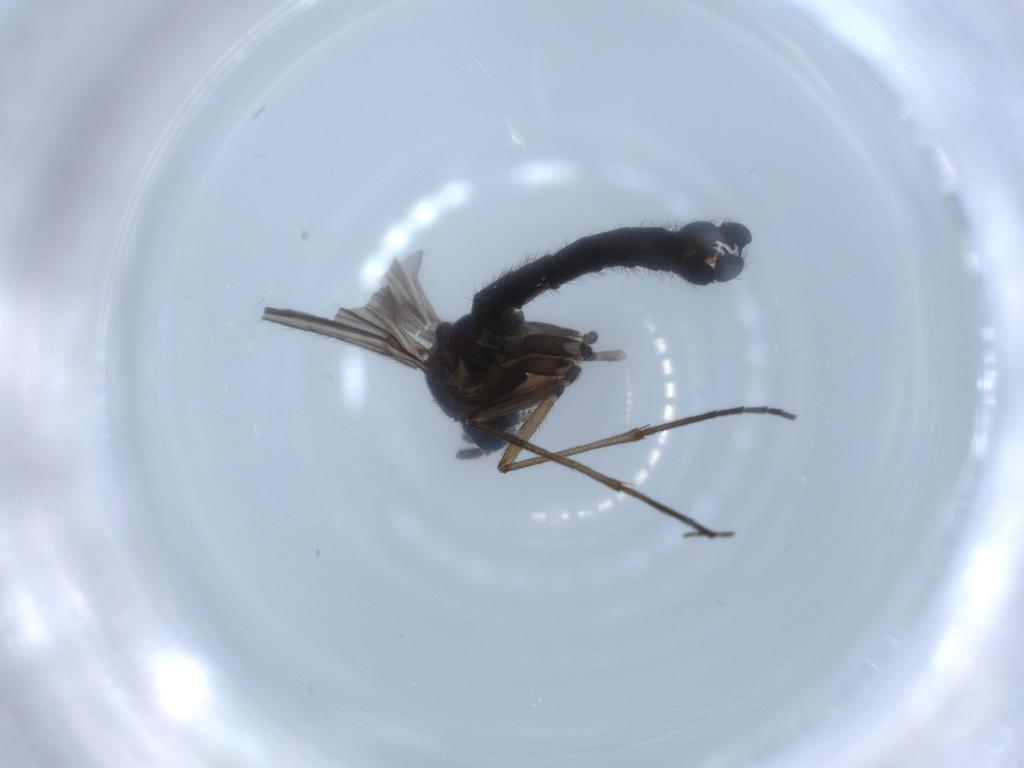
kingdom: Animalia
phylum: Arthropoda
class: Insecta
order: Diptera
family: Sciaridae
